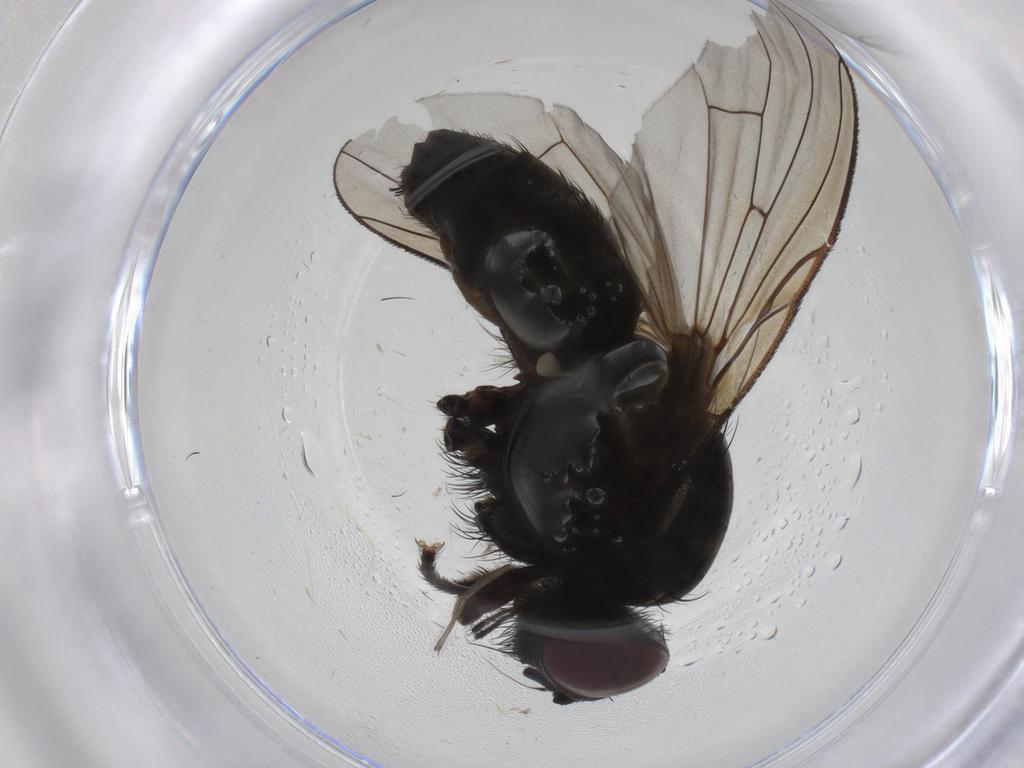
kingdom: Animalia
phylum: Arthropoda
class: Insecta
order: Diptera
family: Muscidae
